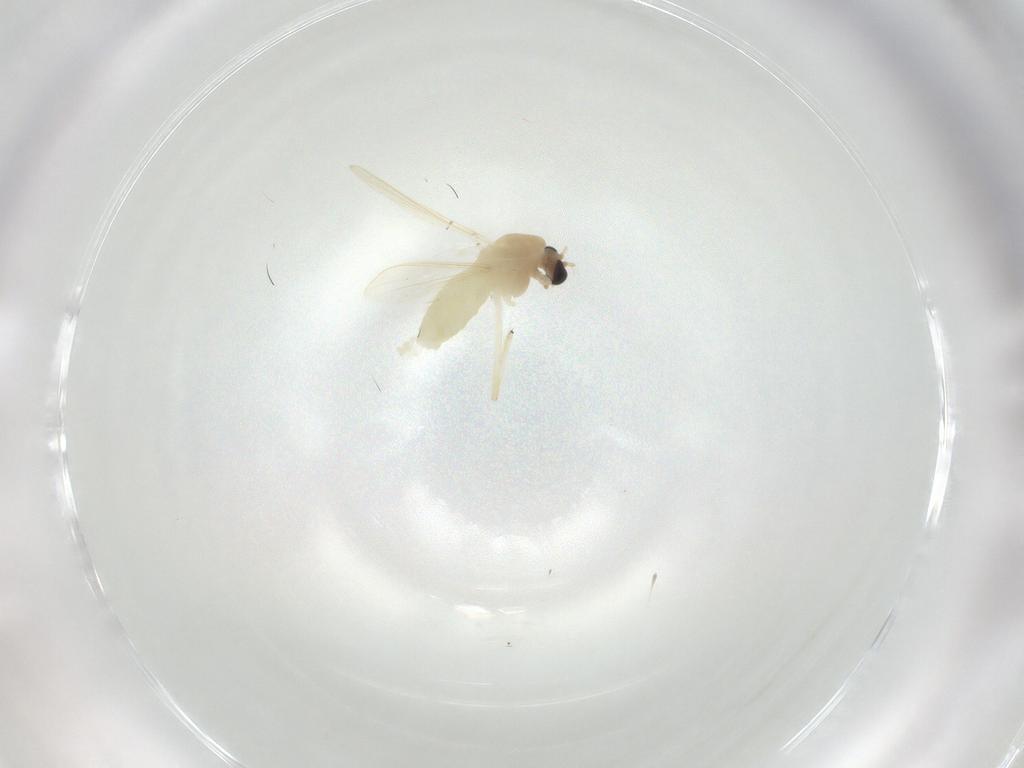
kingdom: Animalia
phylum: Arthropoda
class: Insecta
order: Diptera
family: Chironomidae
